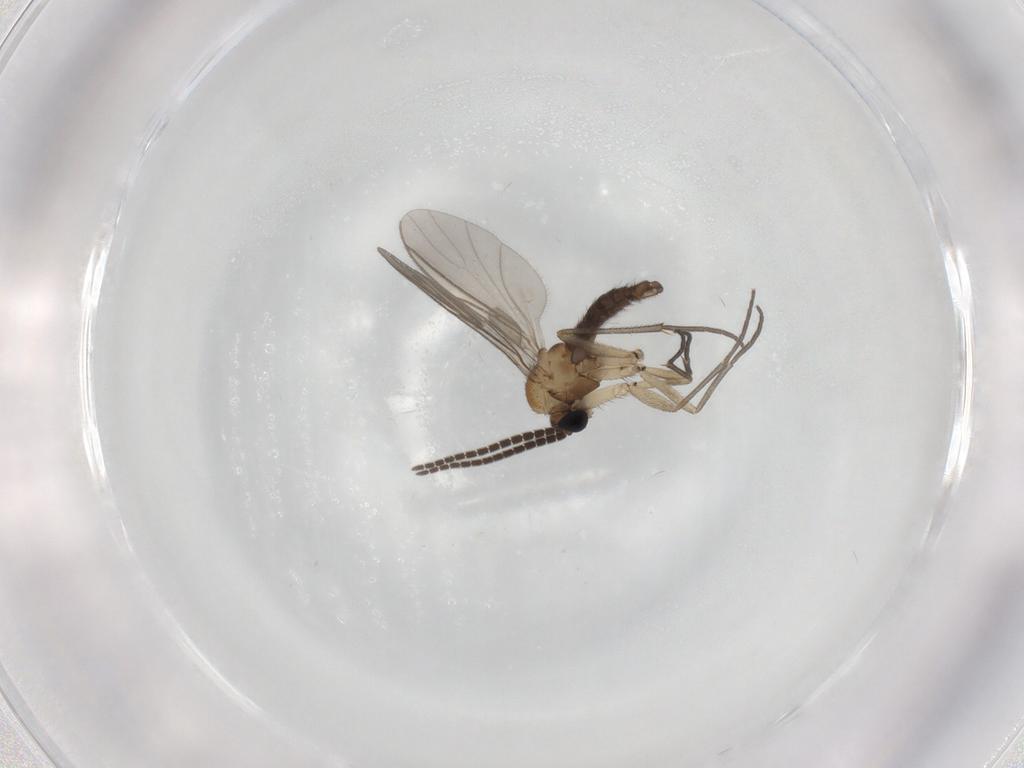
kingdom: Animalia
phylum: Arthropoda
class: Insecta
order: Diptera
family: Sciaridae
